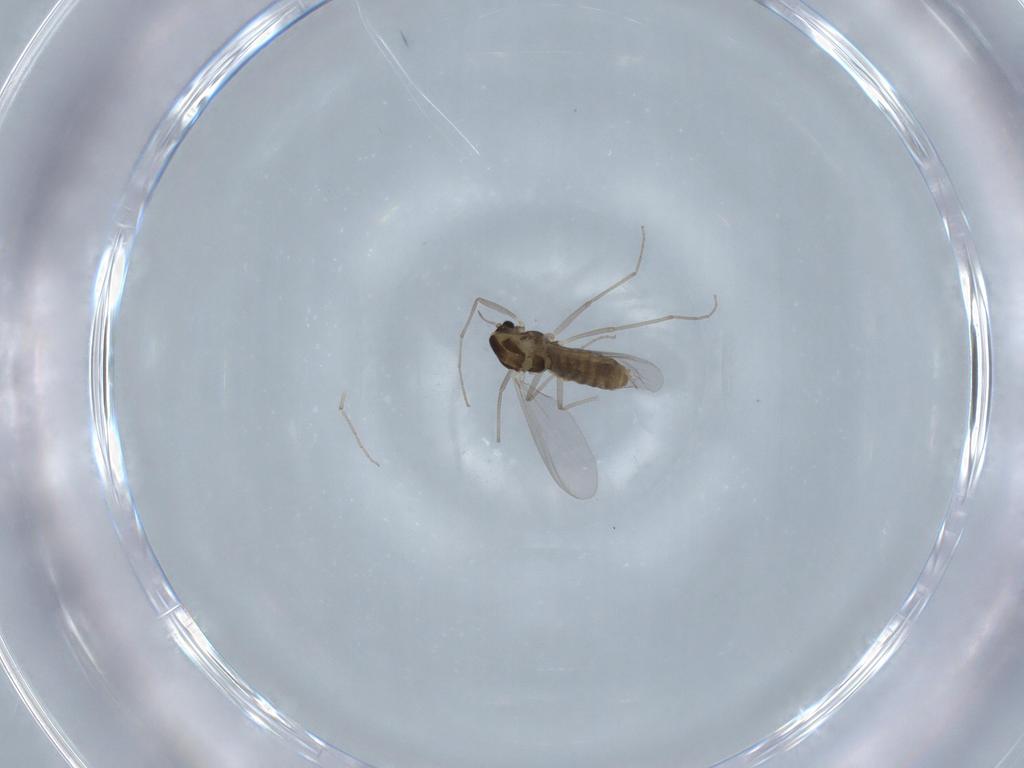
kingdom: Animalia
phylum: Arthropoda
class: Insecta
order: Diptera
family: Chironomidae
